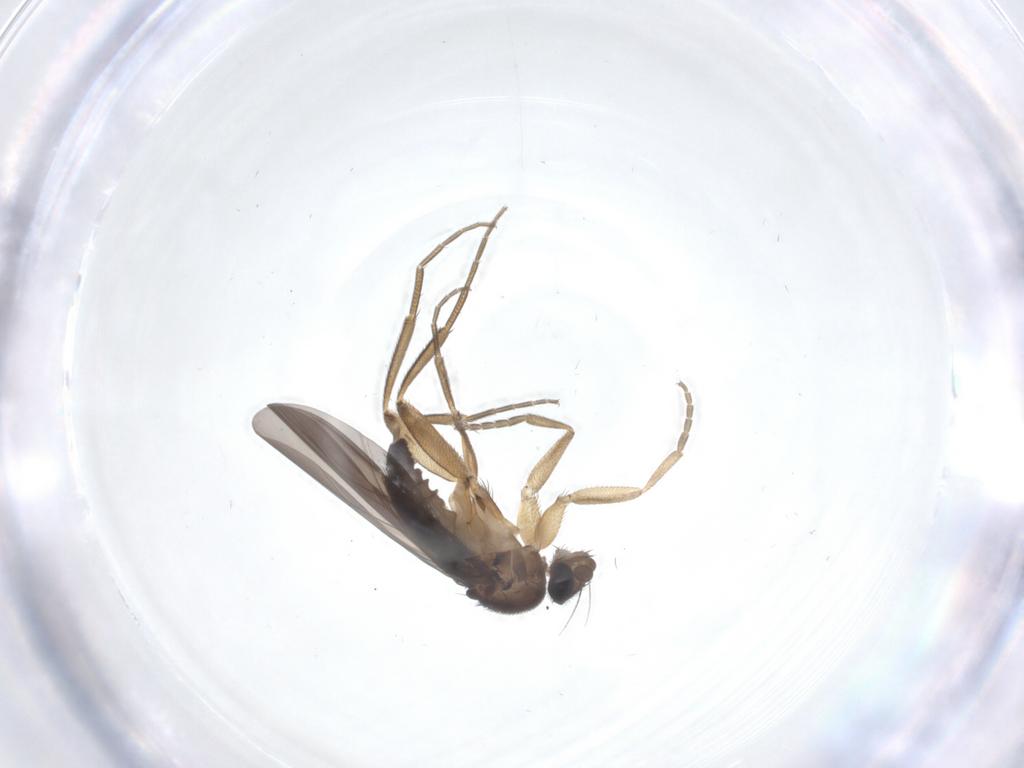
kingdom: Animalia
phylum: Arthropoda
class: Insecta
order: Diptera
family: Phoridae
